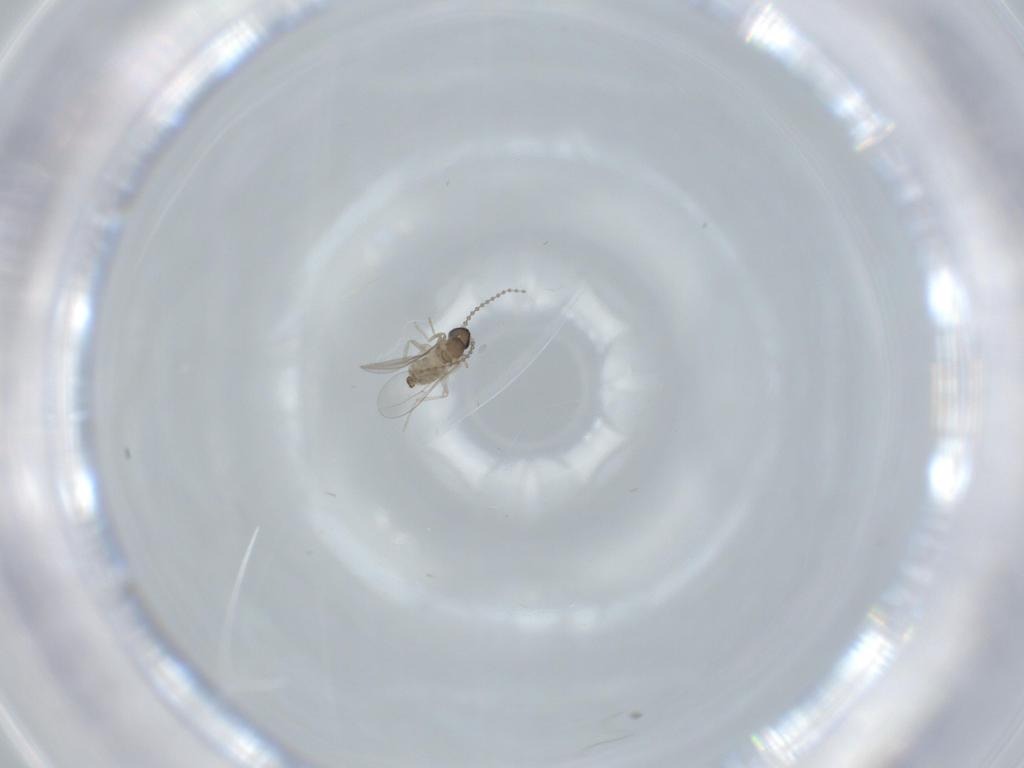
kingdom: Animalia
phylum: Arthropoda
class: Insecta
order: Diptera
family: Cecidomyiidae
